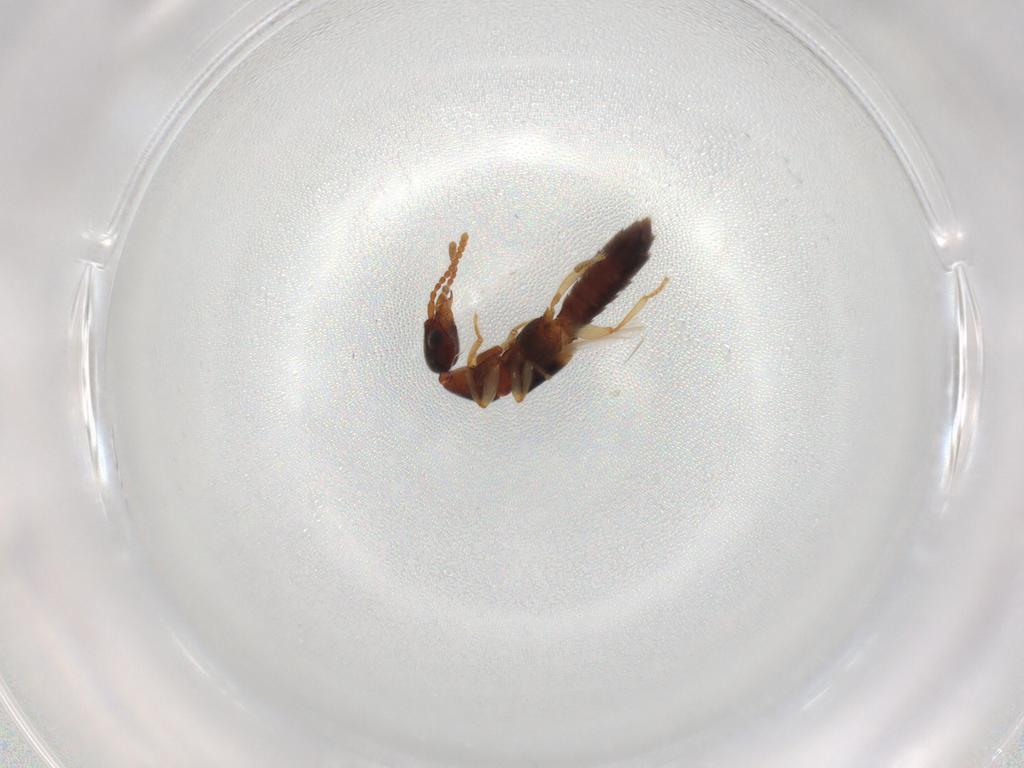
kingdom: Animalia
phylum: Arthropoda
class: Insecta
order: Coleoptera
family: Staphylinidae
